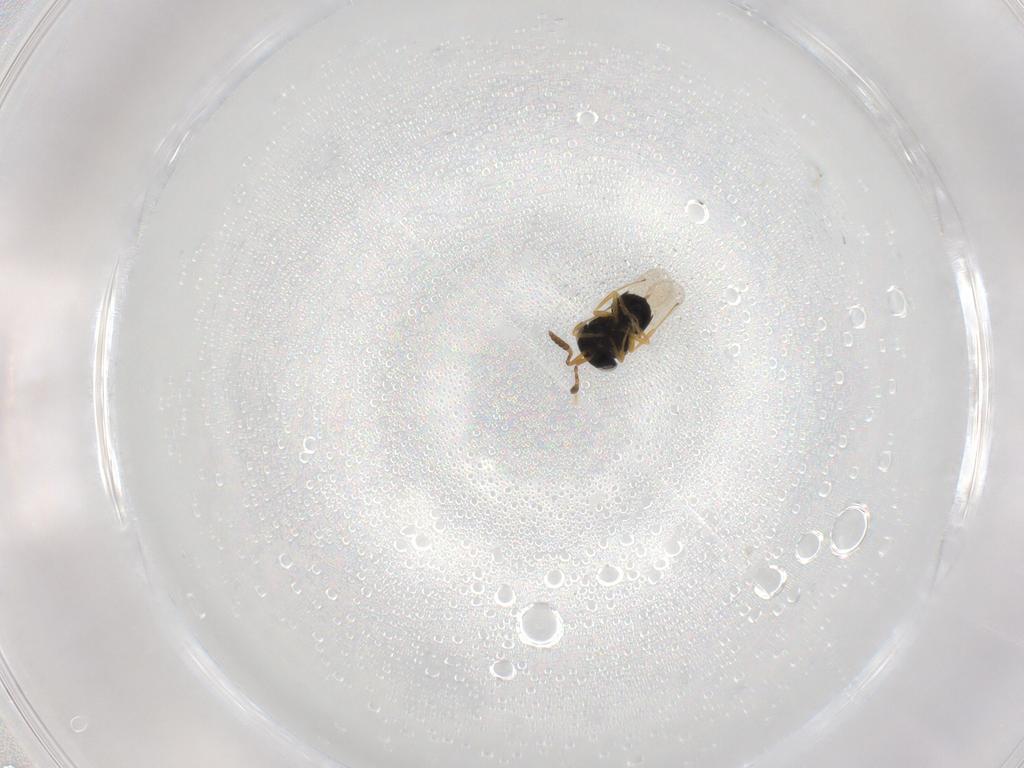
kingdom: Animalia
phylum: Arthropoda
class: Insecta
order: Hymenoptera
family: Scelionidae
